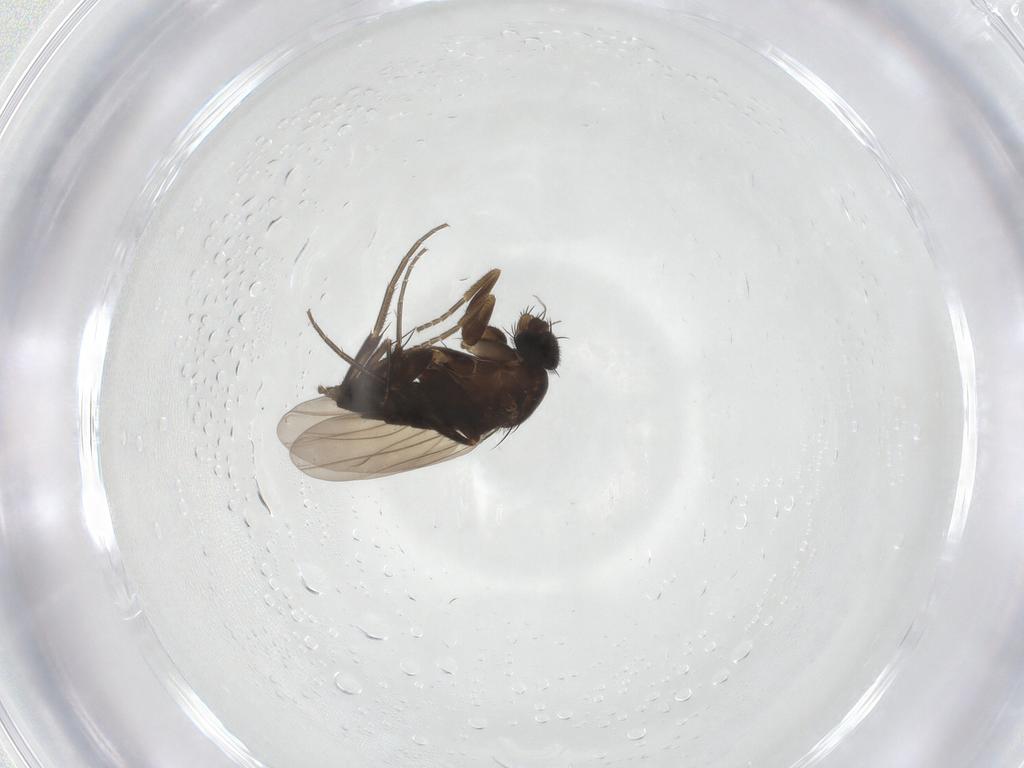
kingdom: Animalia
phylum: Arthropoda
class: Insecta
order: Diptera
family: Phoridae
